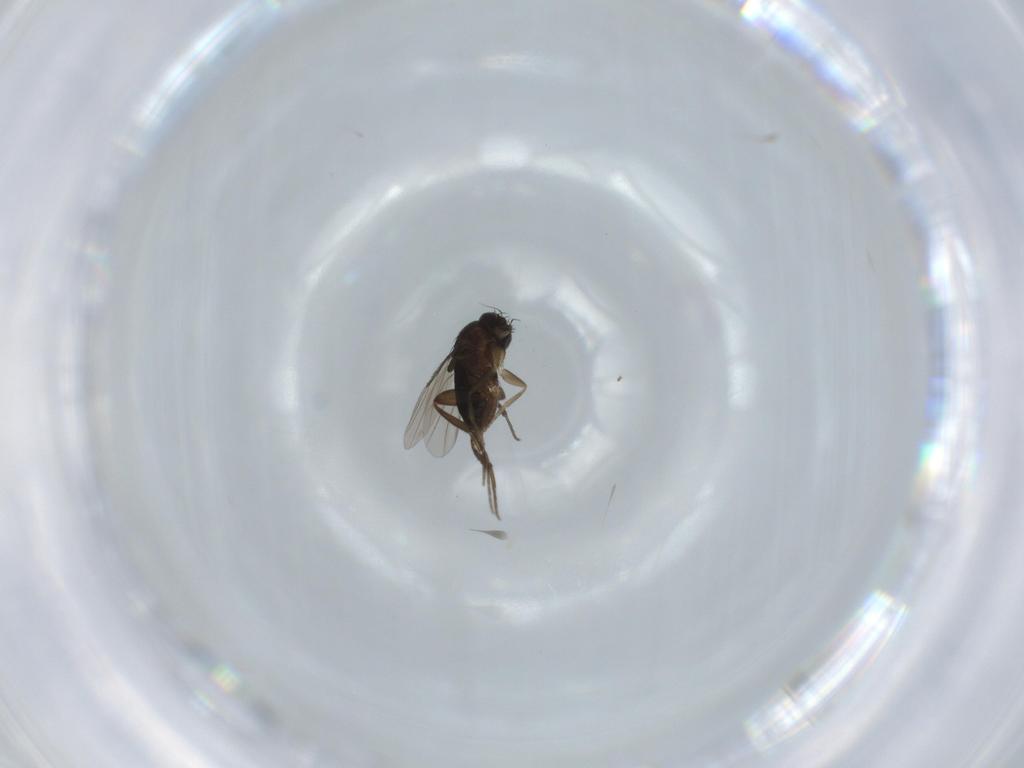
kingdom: Animalia
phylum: Arthropoda
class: Insecta
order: Diptera
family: Phoridae
